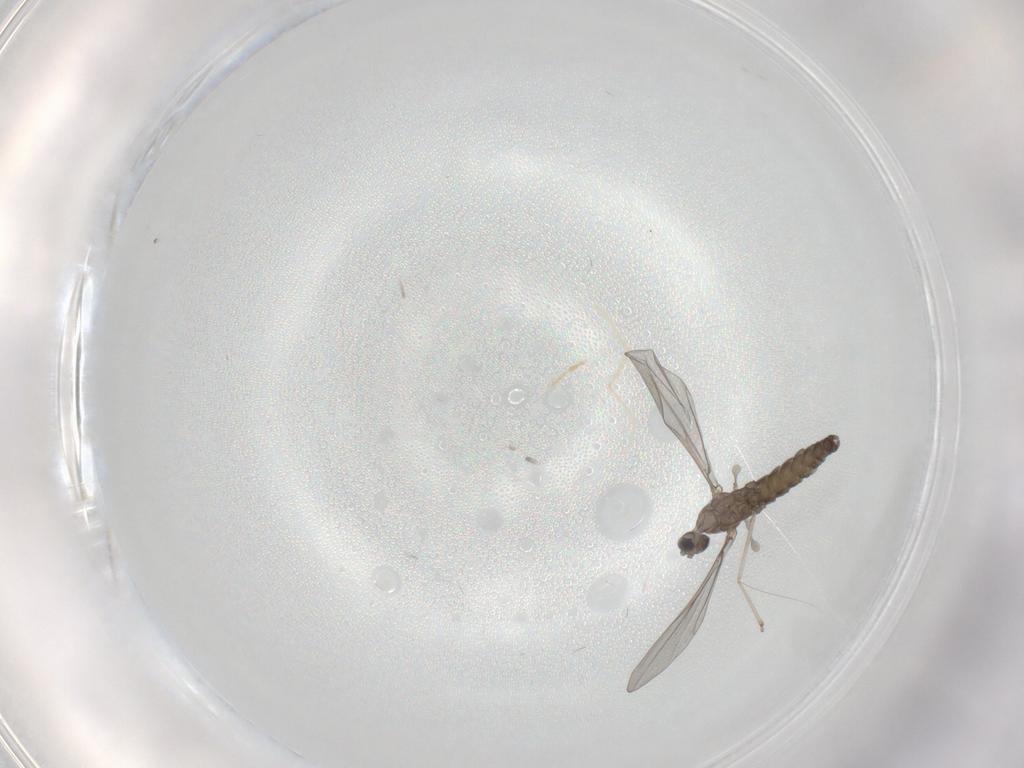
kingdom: Animalia
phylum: Arthropoda
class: Insecta
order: Diptera
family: Cecidomyiidae
